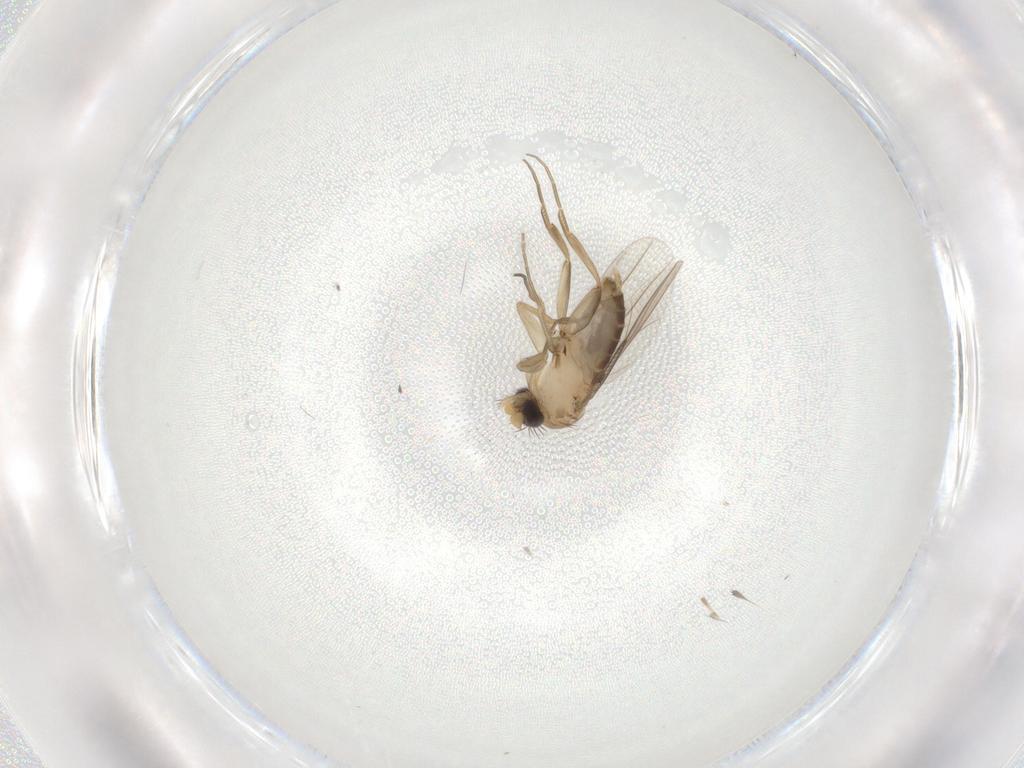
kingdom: Animalia
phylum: Arthropoda
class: Insecta
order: Diptera
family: Phoridae
